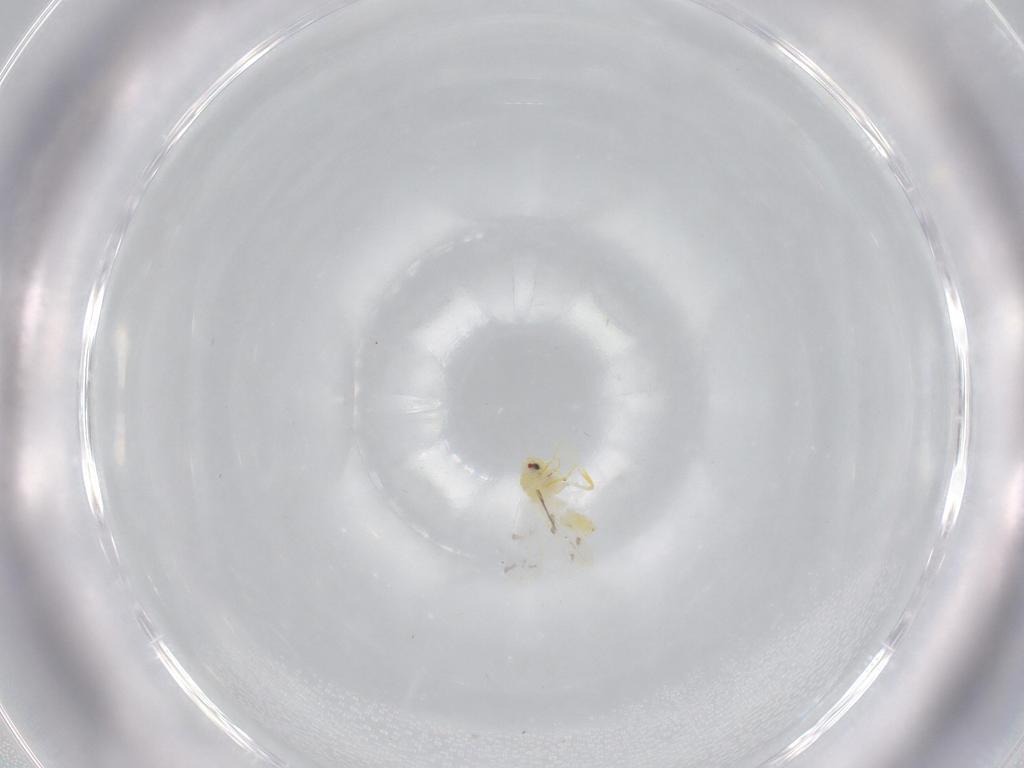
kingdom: Animalia
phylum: Arthropoda
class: Insecta
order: Hemiptera
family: Aleyrodidae
